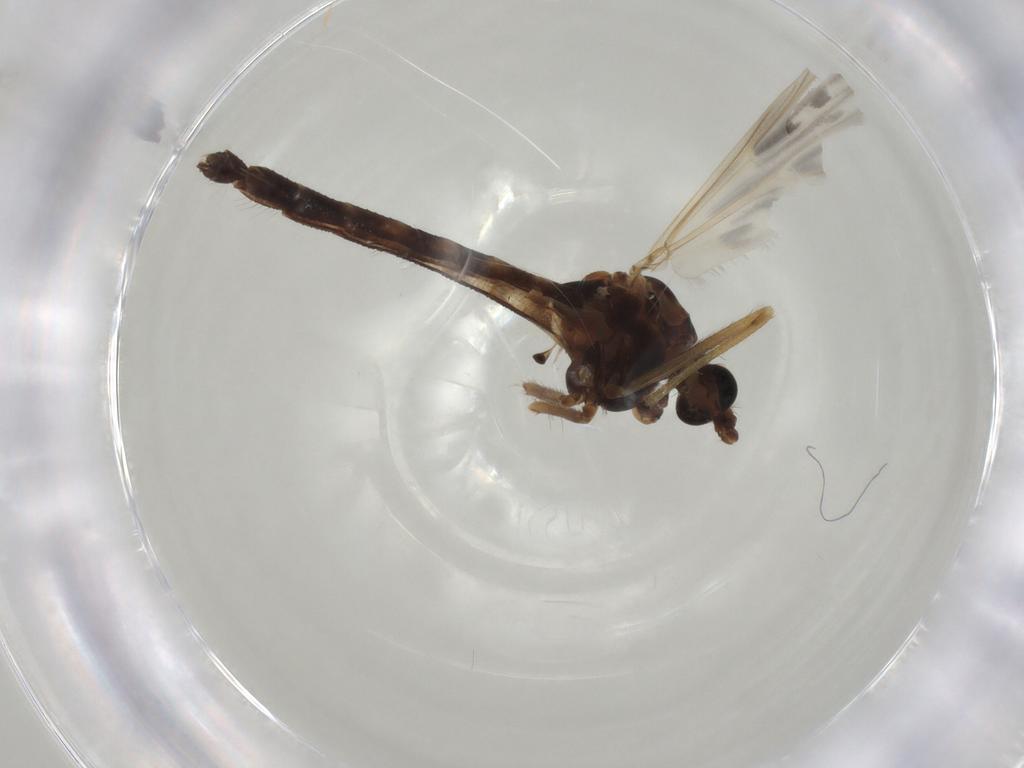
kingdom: Animalia
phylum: Arthropoda
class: Insecta
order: Diptera
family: Chironomidae
